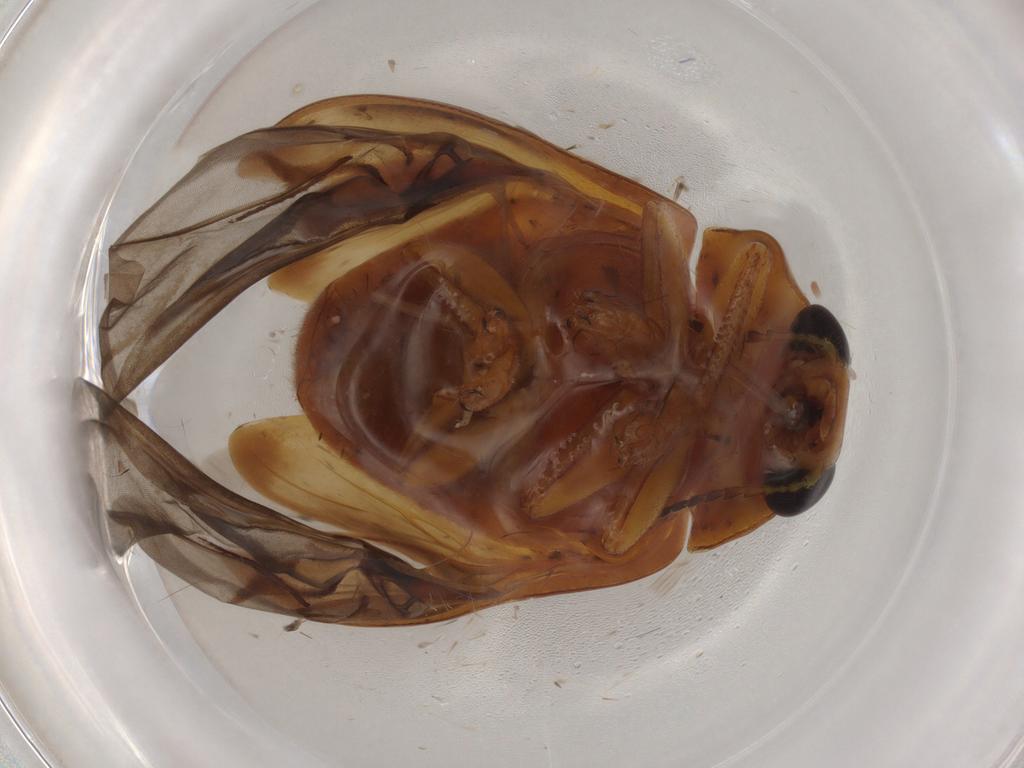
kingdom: Animalia
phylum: Arthropoda
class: Insecta
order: Coleoptera
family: Chrysomelidae
